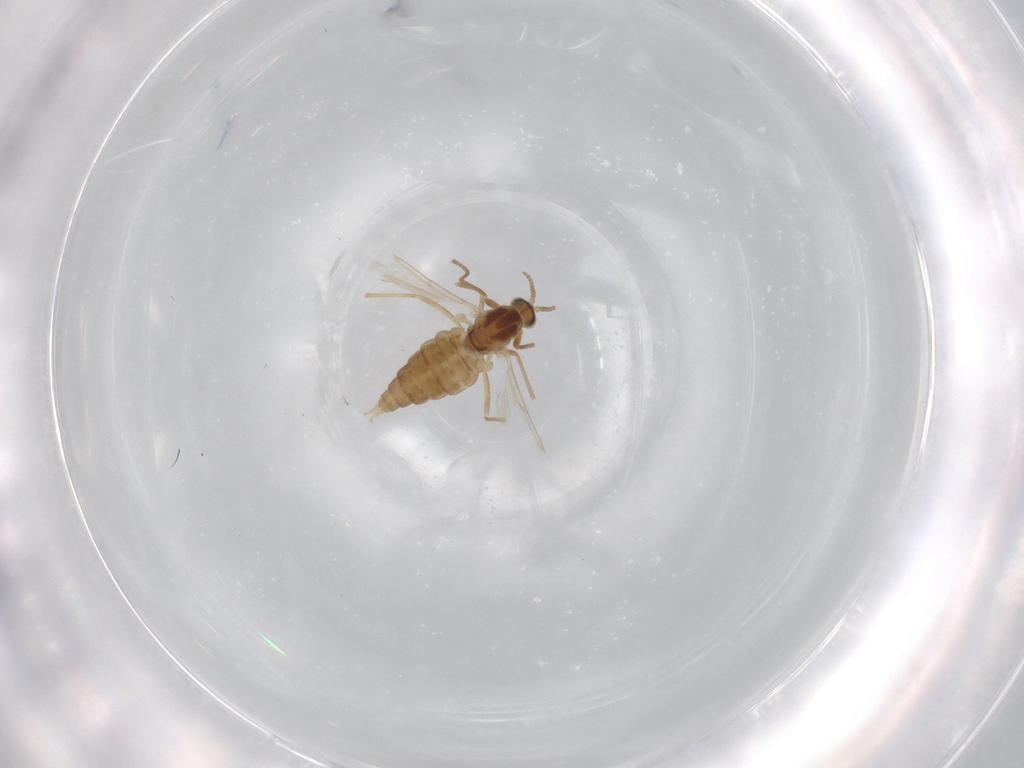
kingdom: Animalia
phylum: Arthropoda
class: Insecta
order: Diptera
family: Cecidomyiidae
